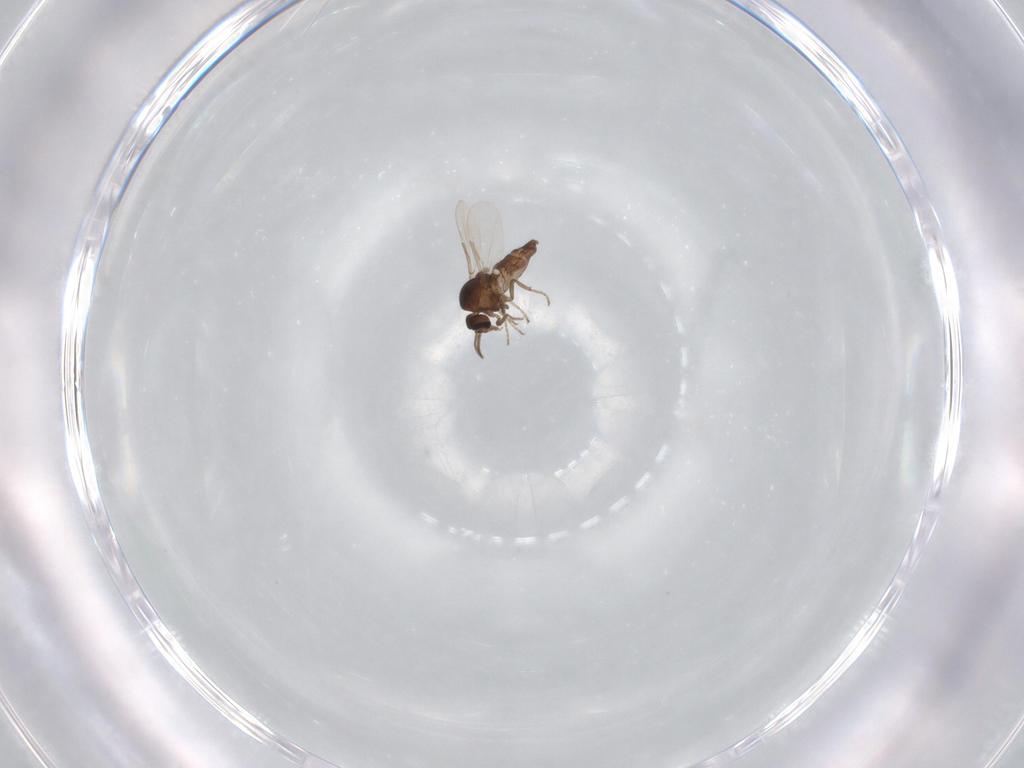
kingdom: Animalia
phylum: Arthropoda
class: Insecta
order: Diptera
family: Ceratopogonidae
